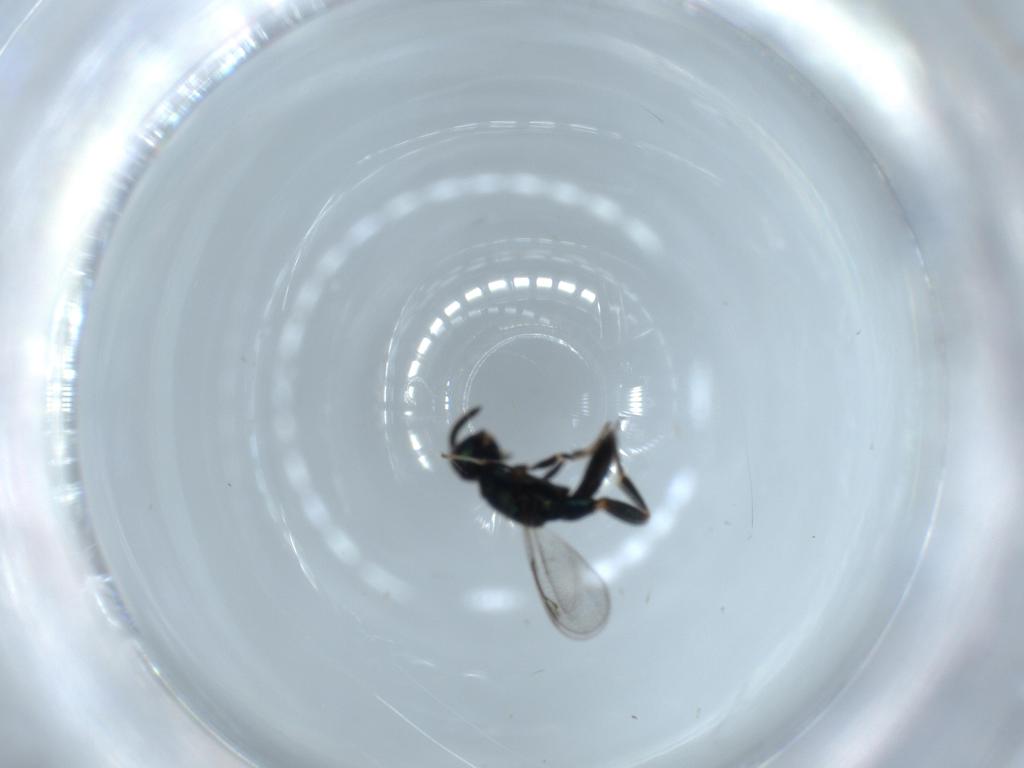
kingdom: Animalia
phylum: Arthropoda
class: Insecta
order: Hymenoptera
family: Cleonyminae
